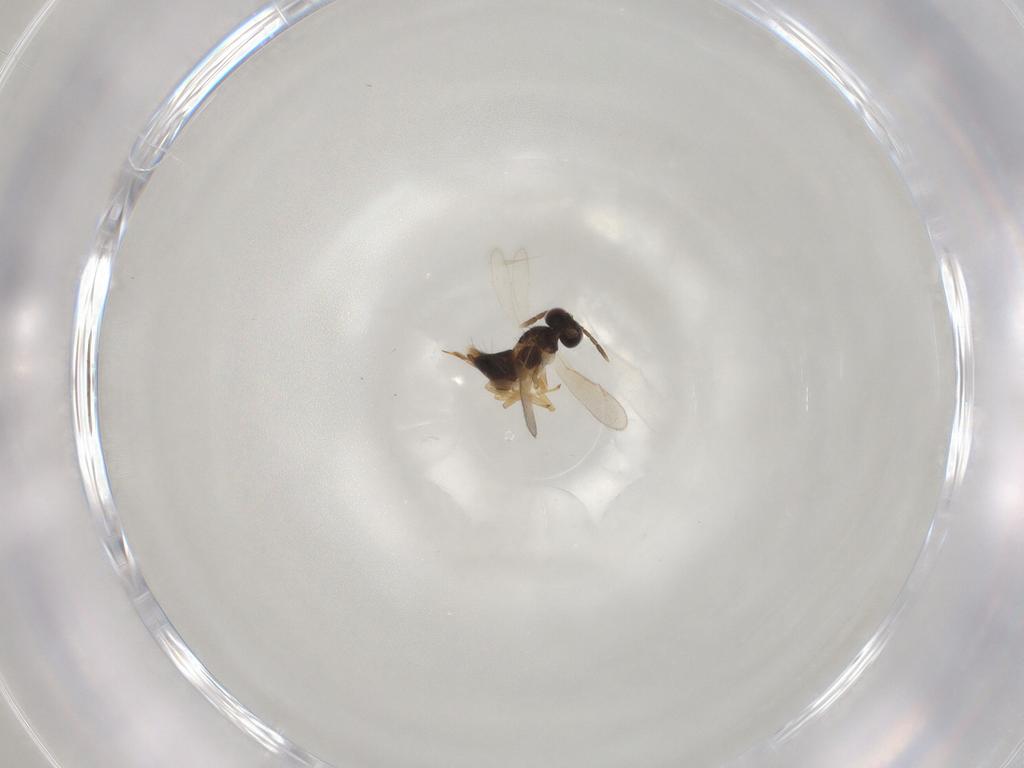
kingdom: Animalia
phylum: Arthropoda
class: Insecta
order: Hymenoptera
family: Aphelinidae
